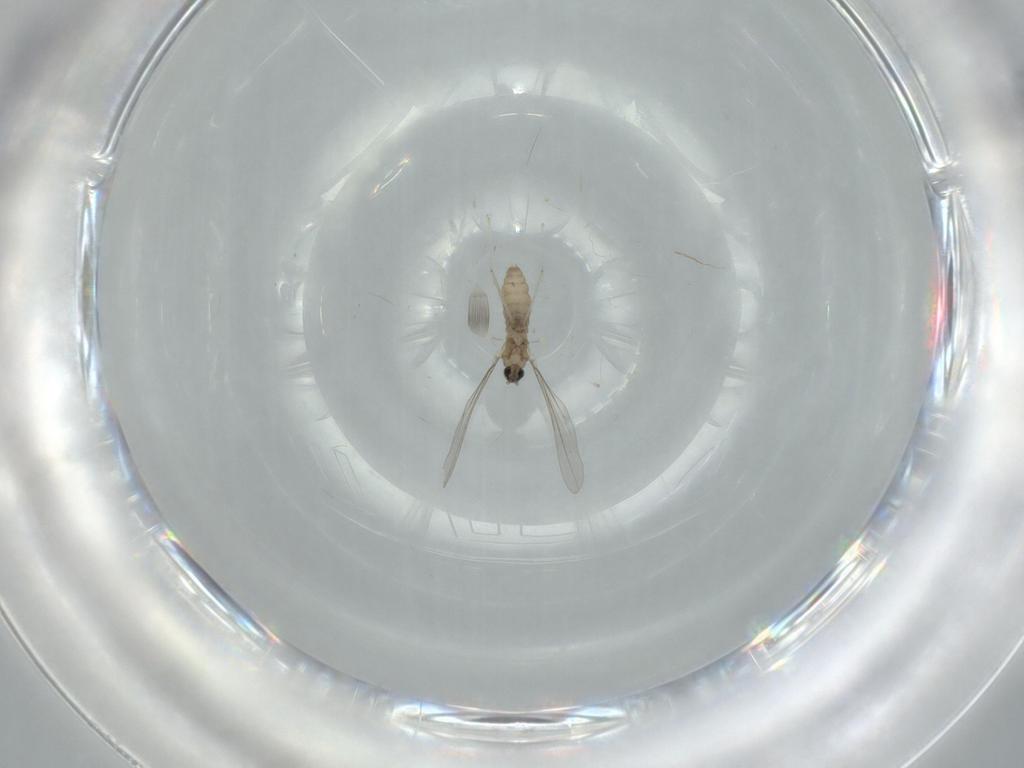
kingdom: Animalia
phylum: Arthropoda
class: Insecta
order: Diptera
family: Cecidomyiidae
